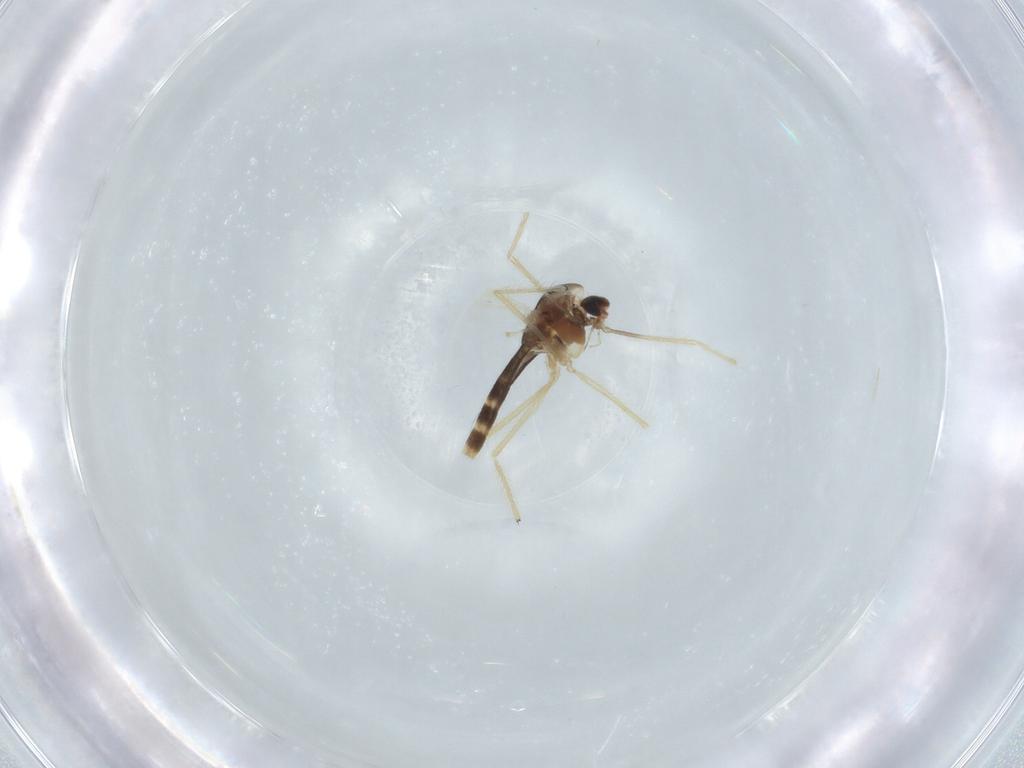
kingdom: Animalia
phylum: Arthropoda
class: Insecta
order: Diptera
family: Chironomidae
